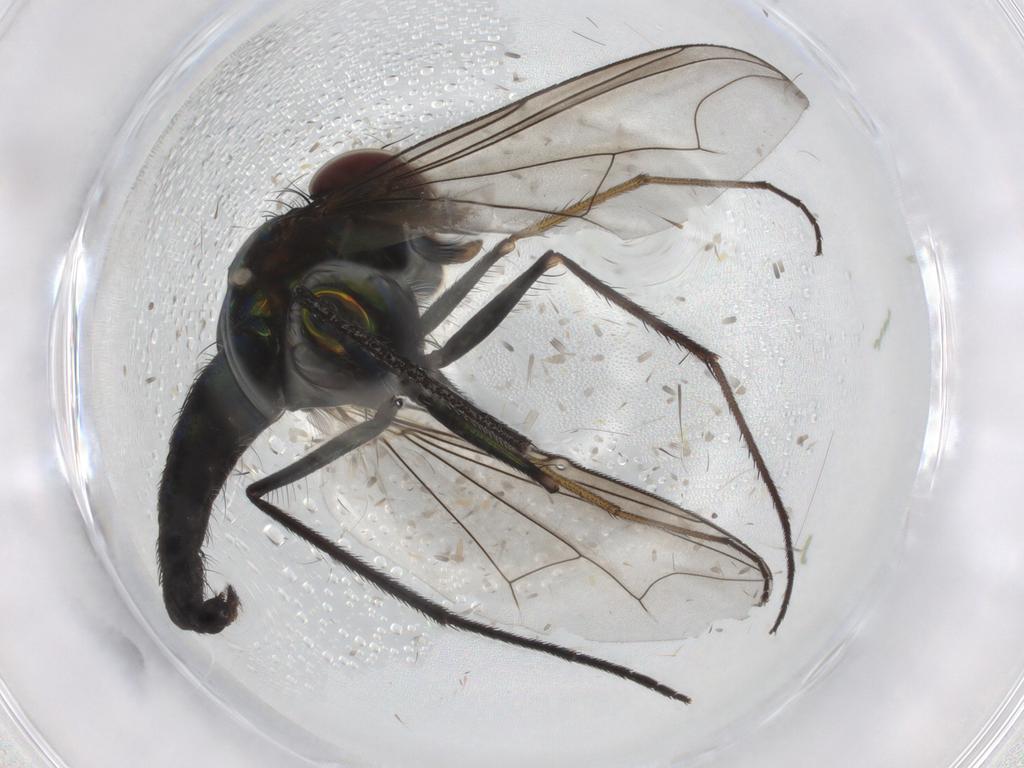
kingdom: Animalia
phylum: Arthropoda
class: Insecta
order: Diptera
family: Dolichopodidae
